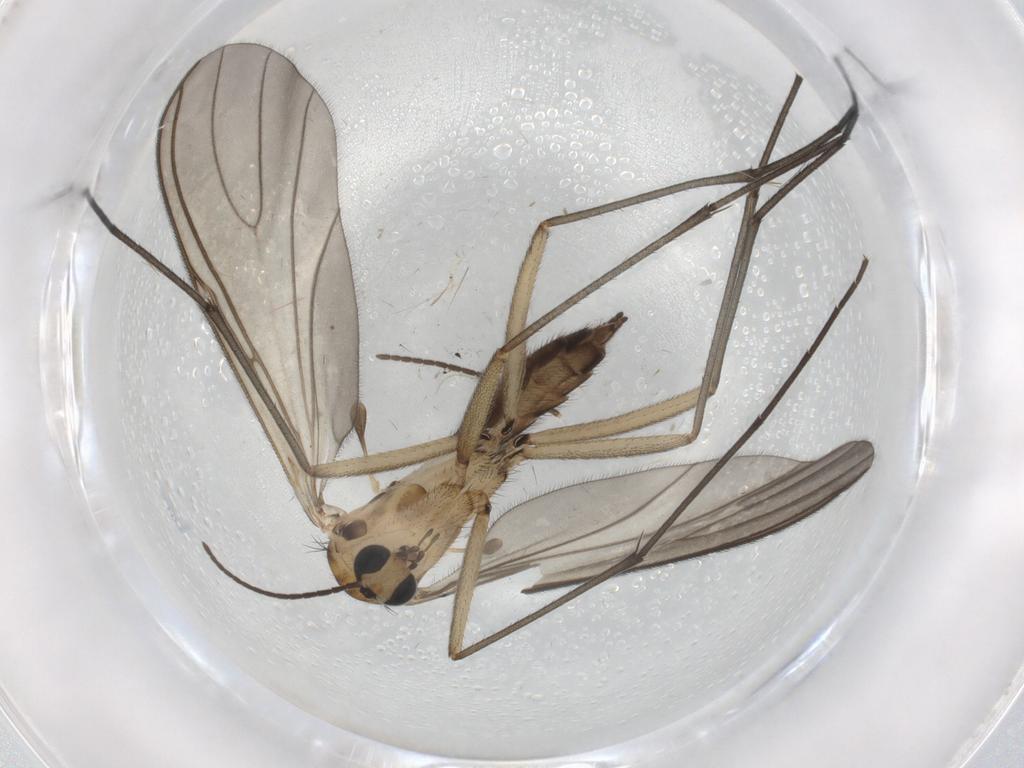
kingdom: Animalia
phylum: Arthropoda
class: Insecta
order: Diptera
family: Sciaridae
